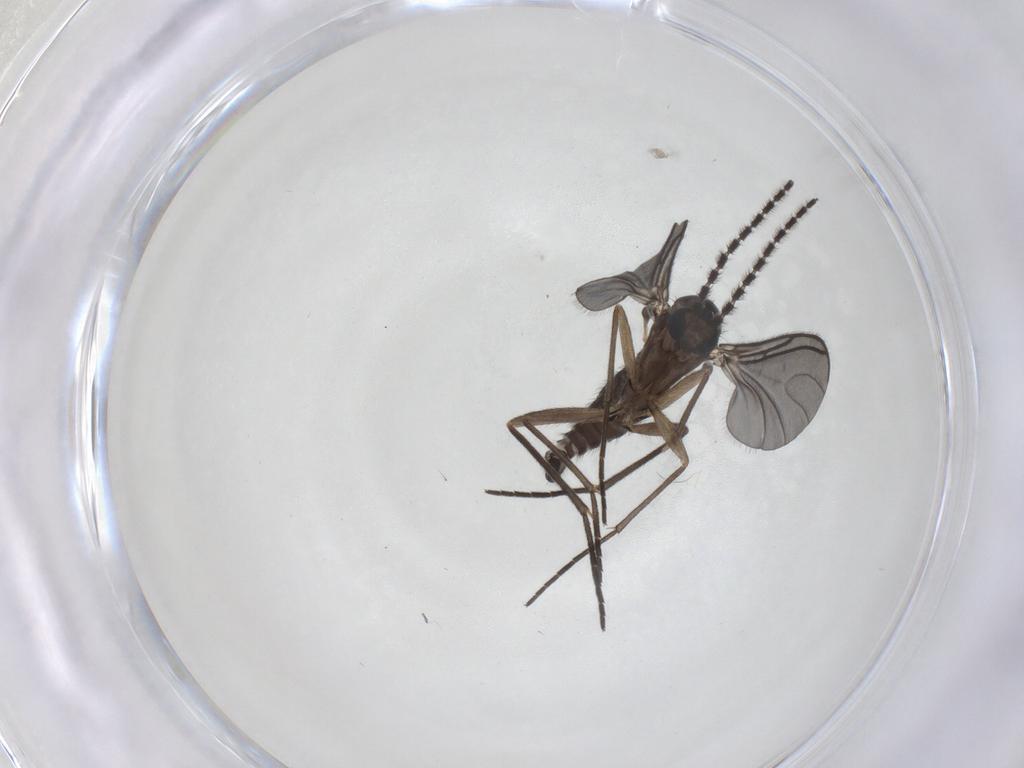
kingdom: Animalia
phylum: Arthropoda
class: Insecta
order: Diptera
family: Sciaridae
